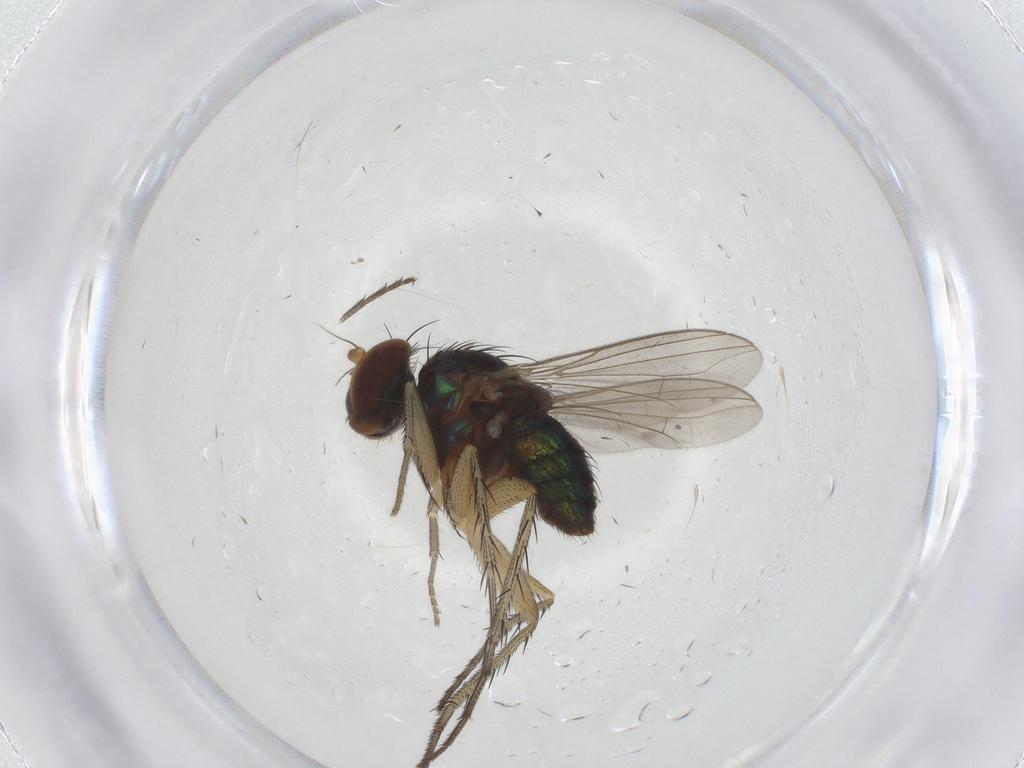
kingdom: Animalia
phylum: Arthropoda
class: Insecta
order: Diptera
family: Dolichopodidae
